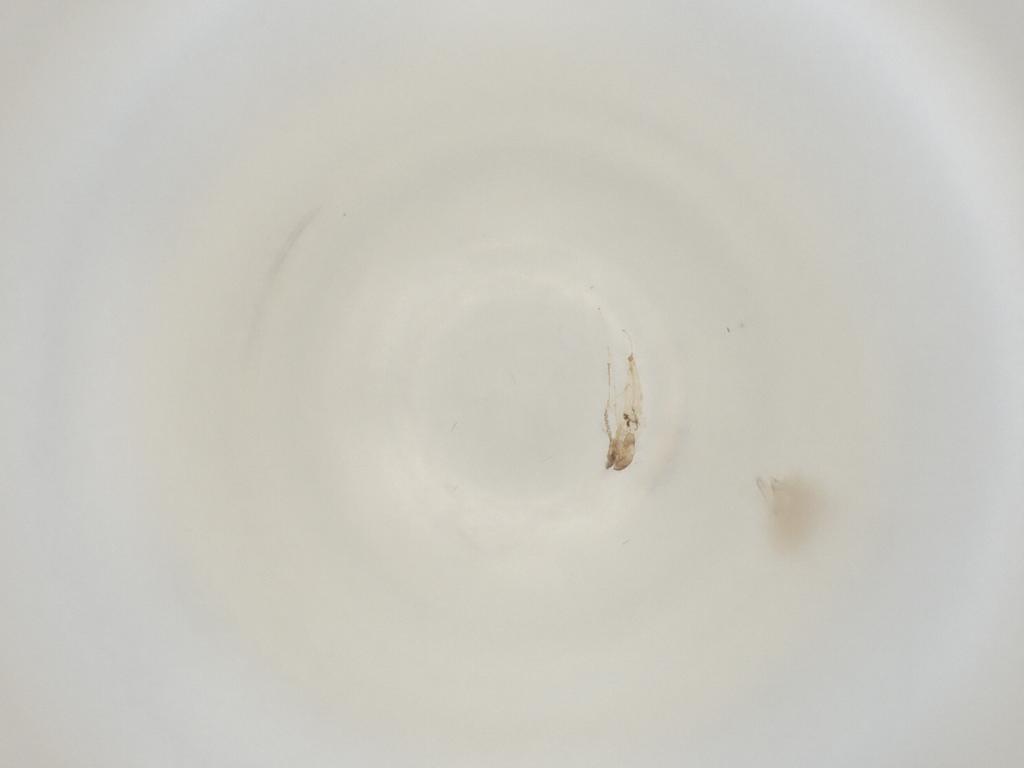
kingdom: Animalia
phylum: Arthropoda
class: Insecta
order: Diptera
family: Cecidomyiidae
